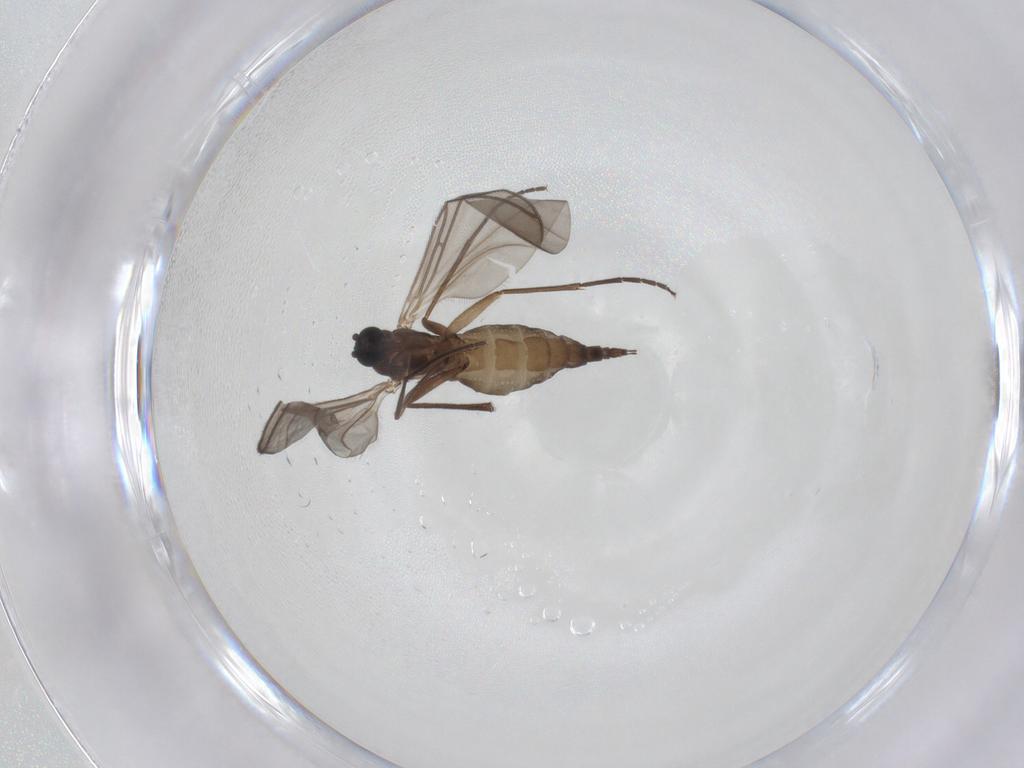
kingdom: Animalia
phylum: Arthropoda
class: Insecta
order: Diptera
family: Sciaridae
